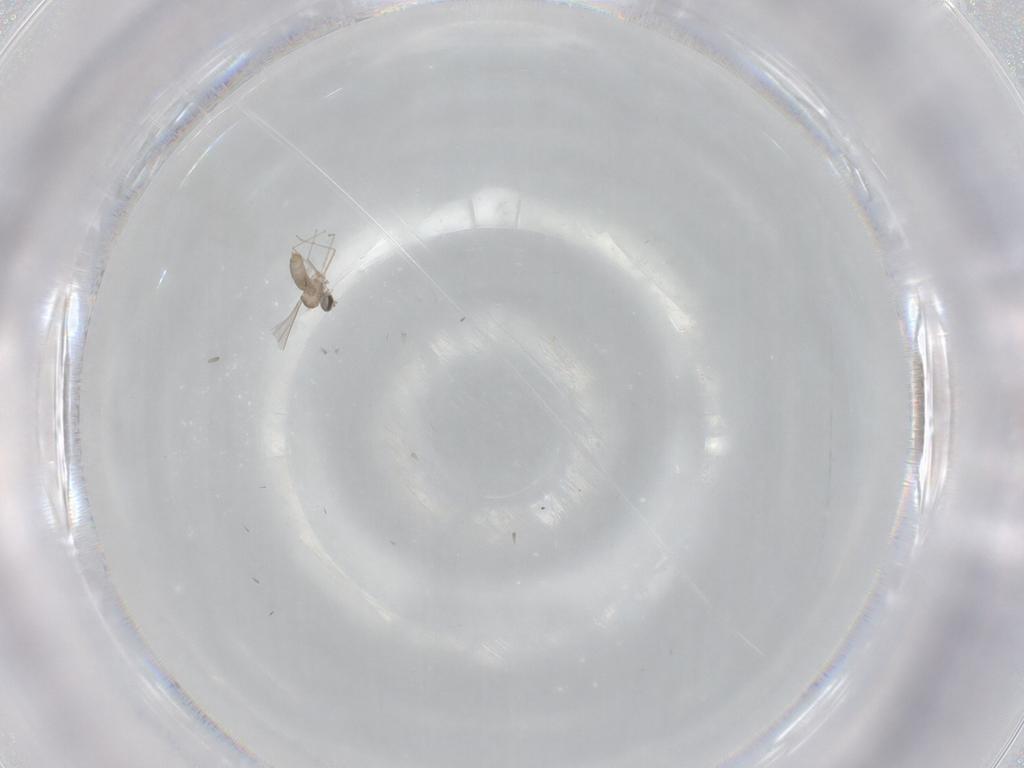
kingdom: Animalia
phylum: Arthropoda
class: Insecta
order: Diptera
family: Cecidomyiidae
